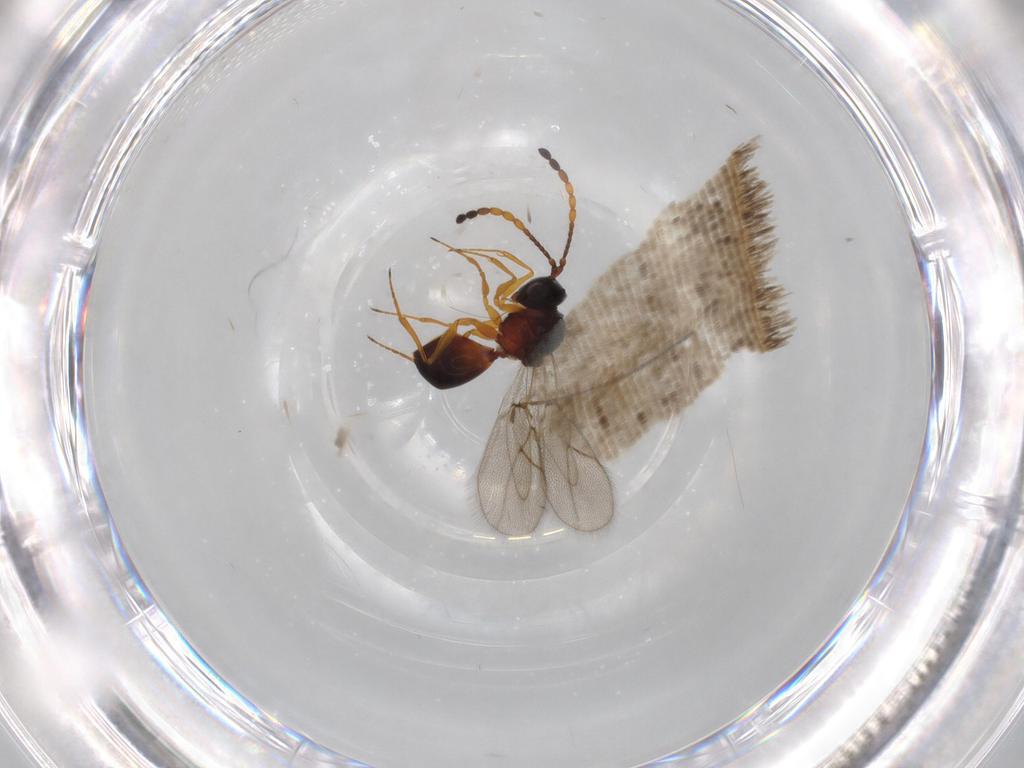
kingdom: Animalia
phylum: Arthropoda
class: Insecta
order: Hymenoptera
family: Figitidae
